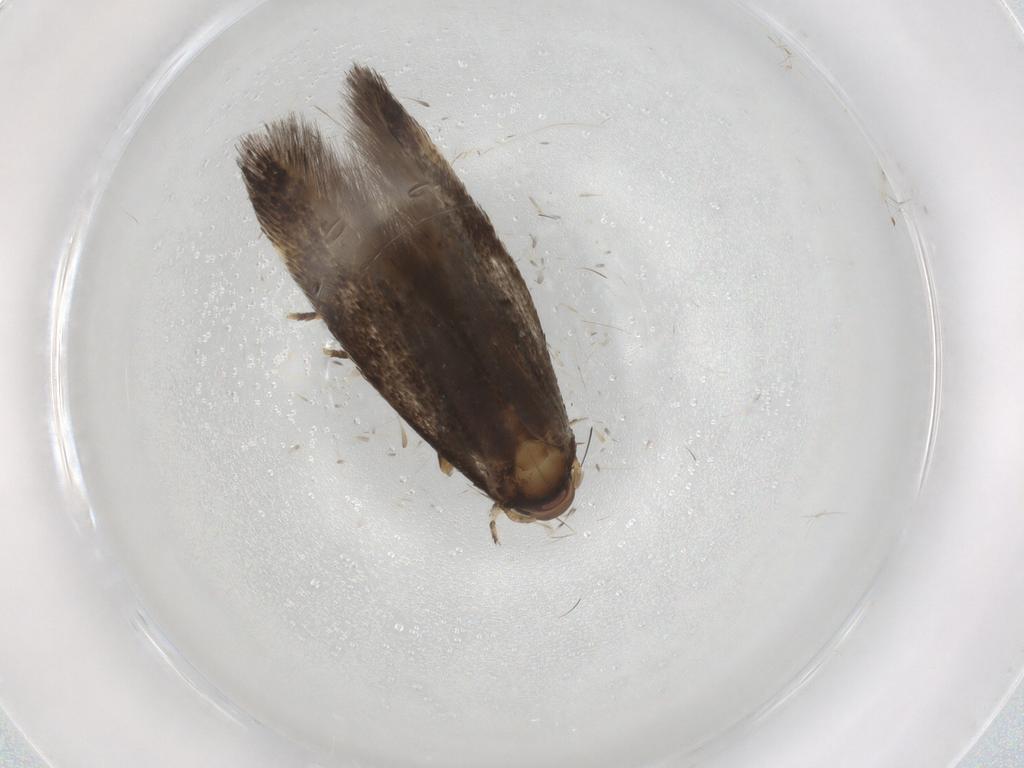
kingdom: Animalia
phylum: Arthropoda
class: Insecta
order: Lepidoptera
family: Elachistidae
